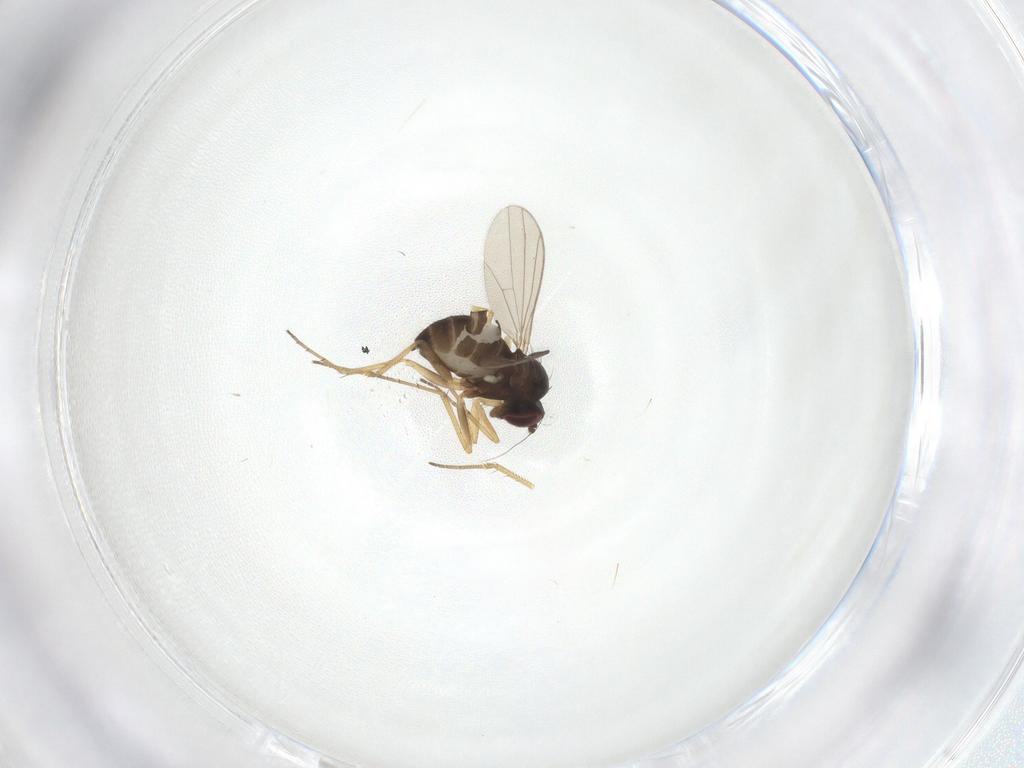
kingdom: Animalia
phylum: Arthropoda
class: Insecta
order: Diptera
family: Dolichopodidae
